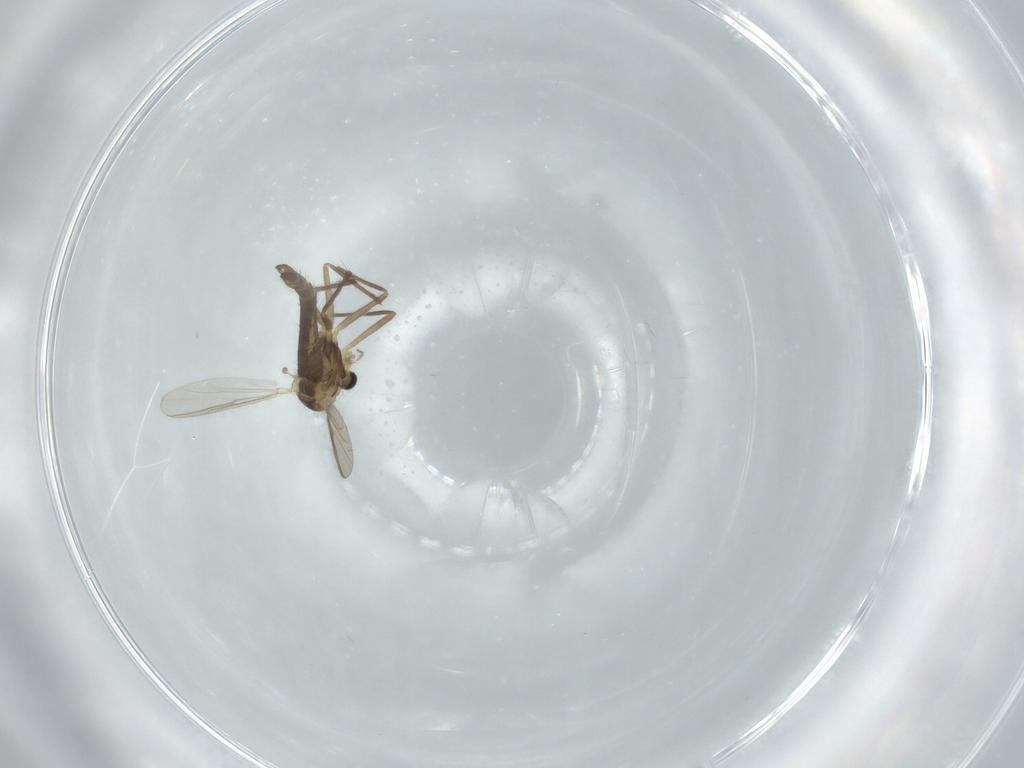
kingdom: Animalia
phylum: Arthropoda
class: Insecta
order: Diptera
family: Chironomidae
